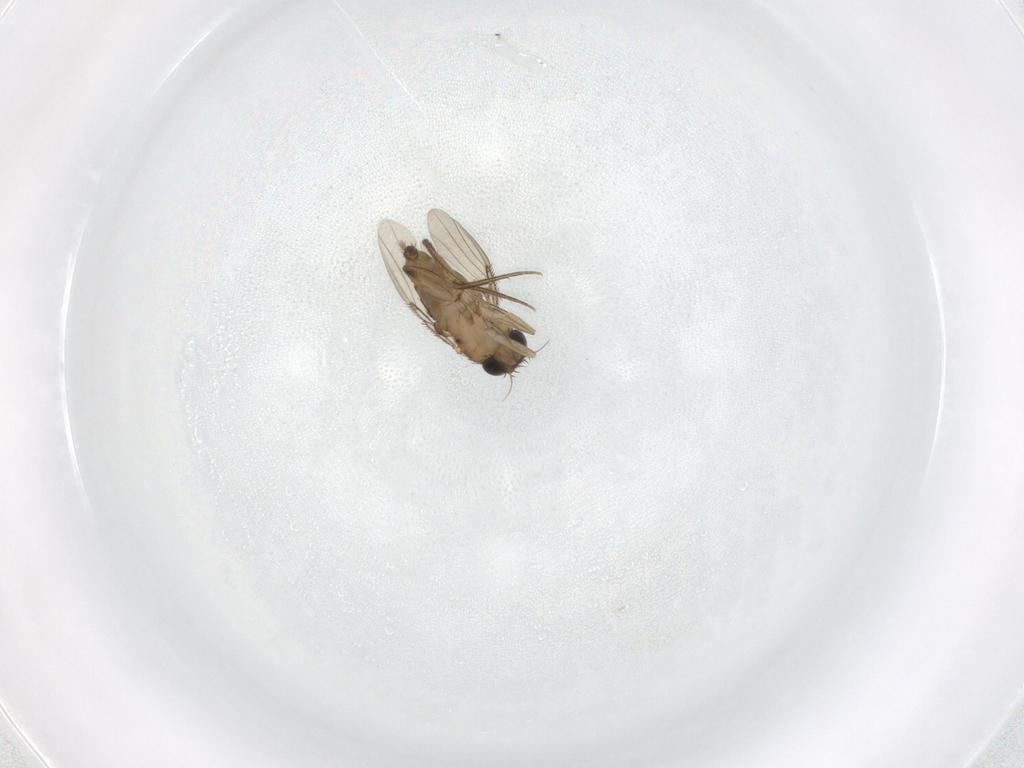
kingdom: Animalia
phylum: Arthropoda
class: Insecta
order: Diptera
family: Phoridae
